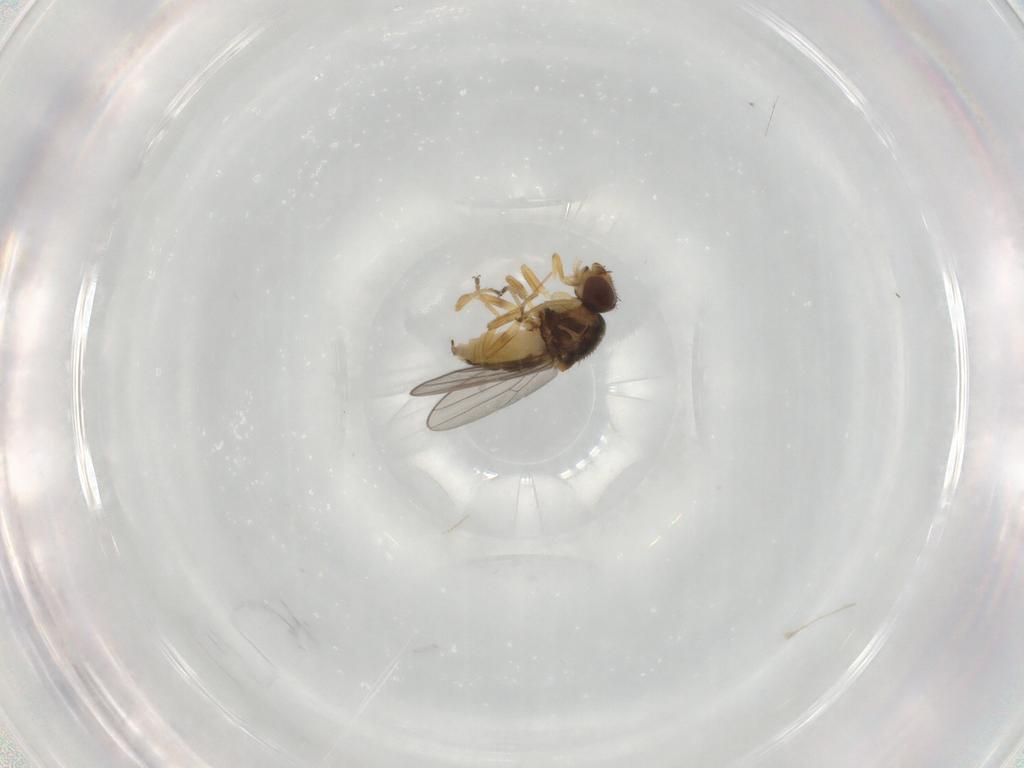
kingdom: Animalia
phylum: Arthropoda
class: Insecta
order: Diptera
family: Chloropidae
